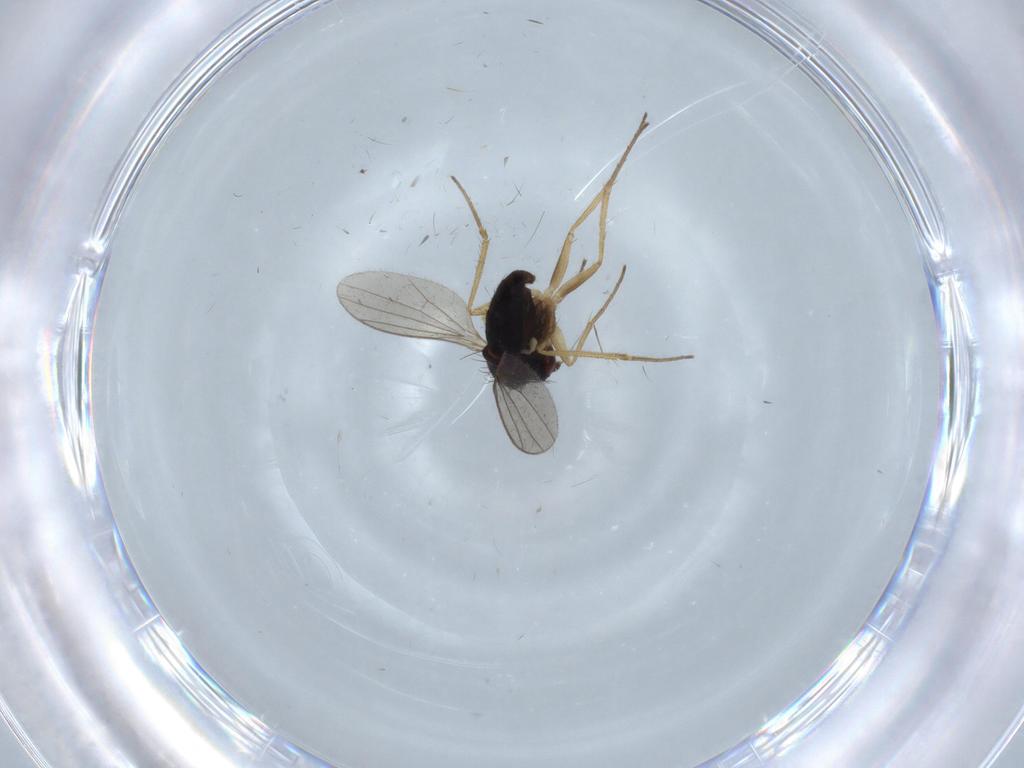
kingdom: Animalia
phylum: Arthropoda
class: Insecta
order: Diptera
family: Dolichopodidae
